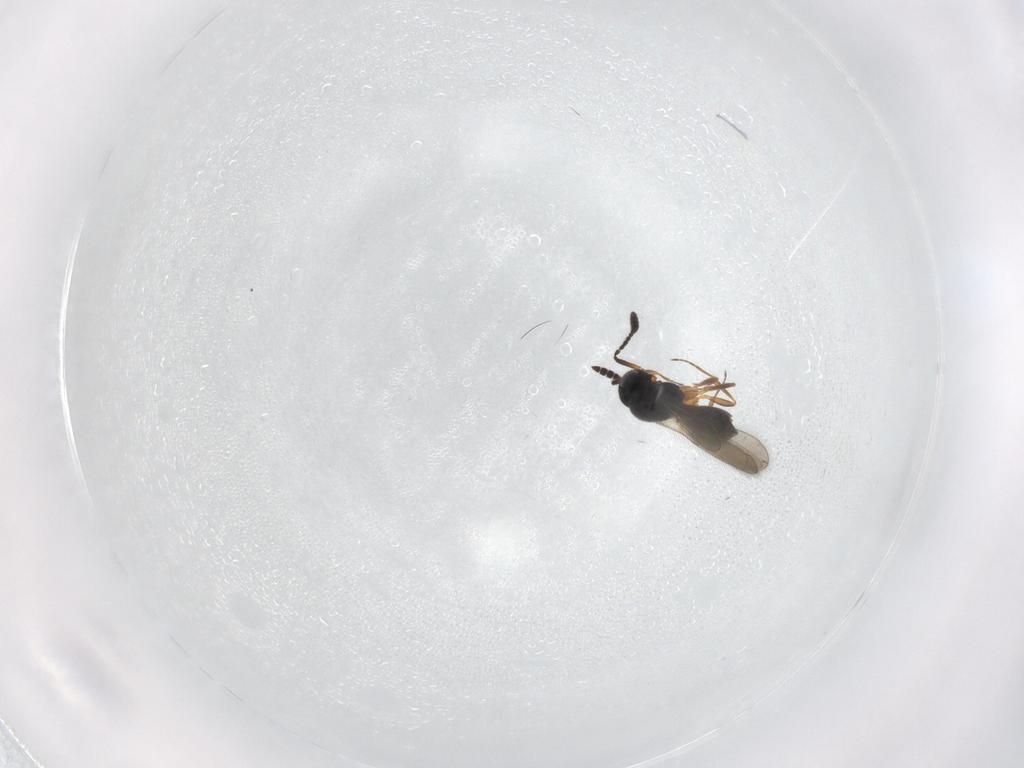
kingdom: Animalia
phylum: Arthropoda
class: Insecta
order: Hymenoptera
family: Scelionidae
